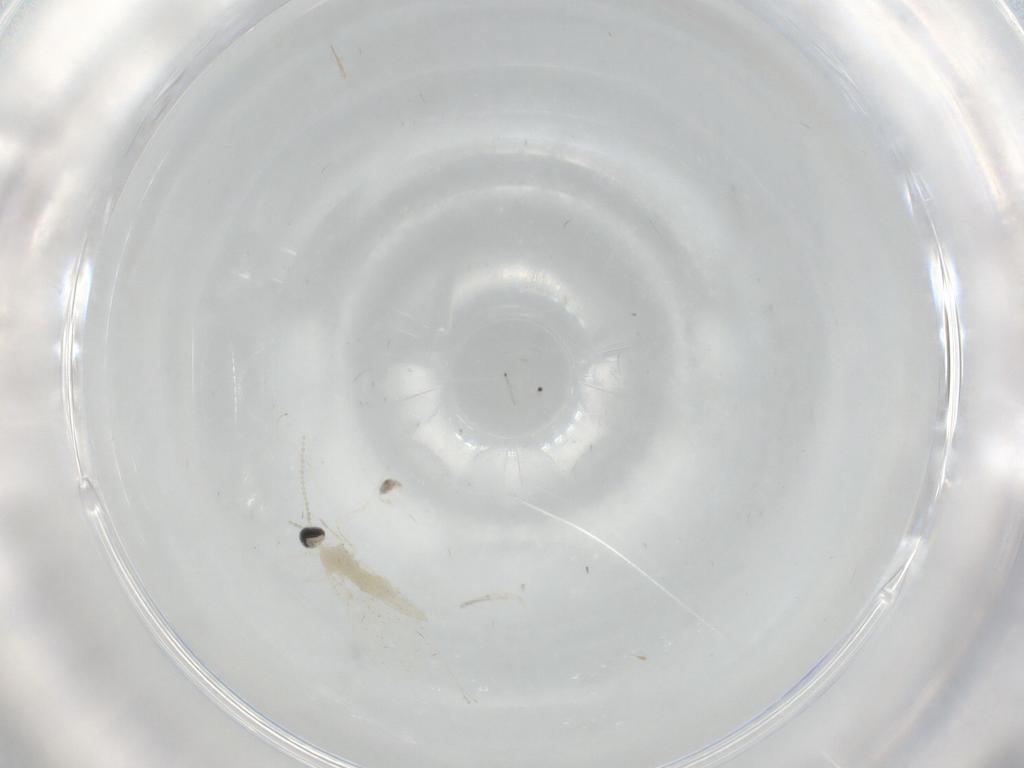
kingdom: Animalia
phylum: Arthropoda
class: Insecta
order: Diptera
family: Cecidomyiidae
